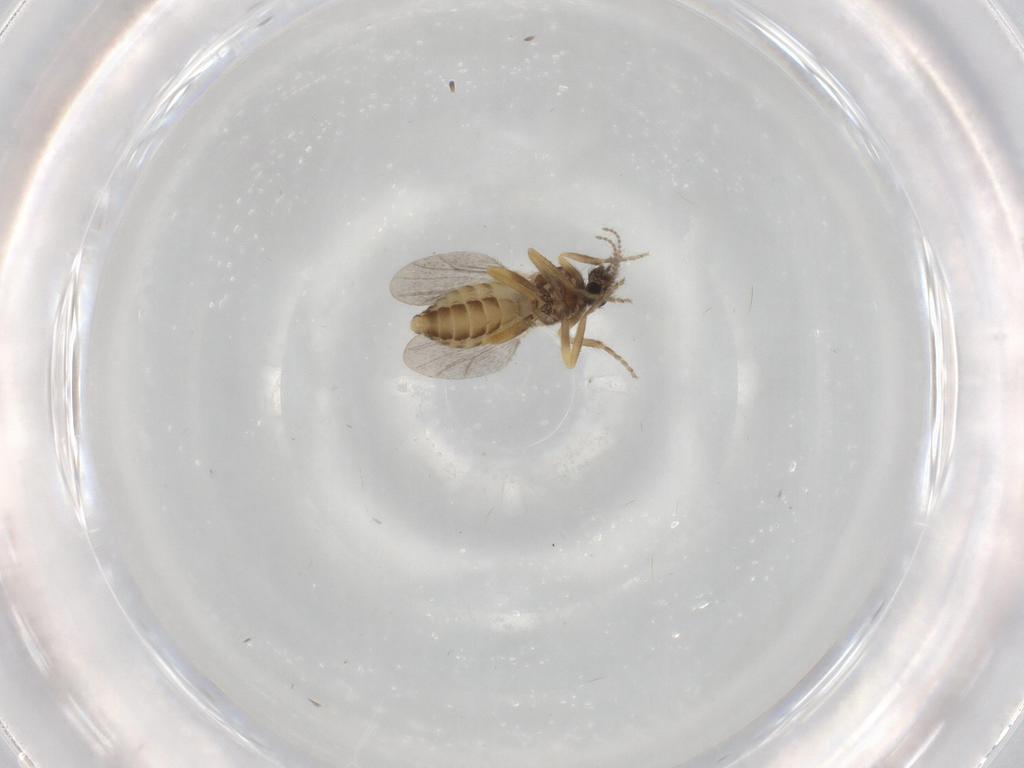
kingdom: Animalia
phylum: Arthropoda
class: Insecta
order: Diptera
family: Ceratopogonidae
